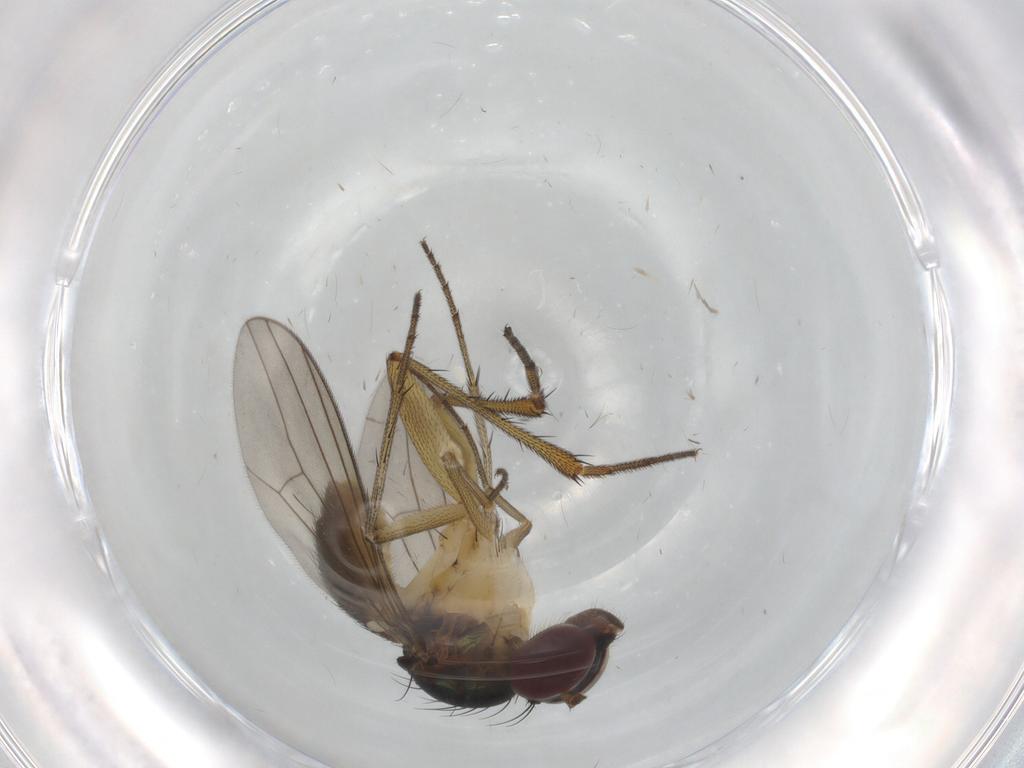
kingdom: Animalia
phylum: Arthropoda
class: Insecta
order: Diptera
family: Dolichopodidae
